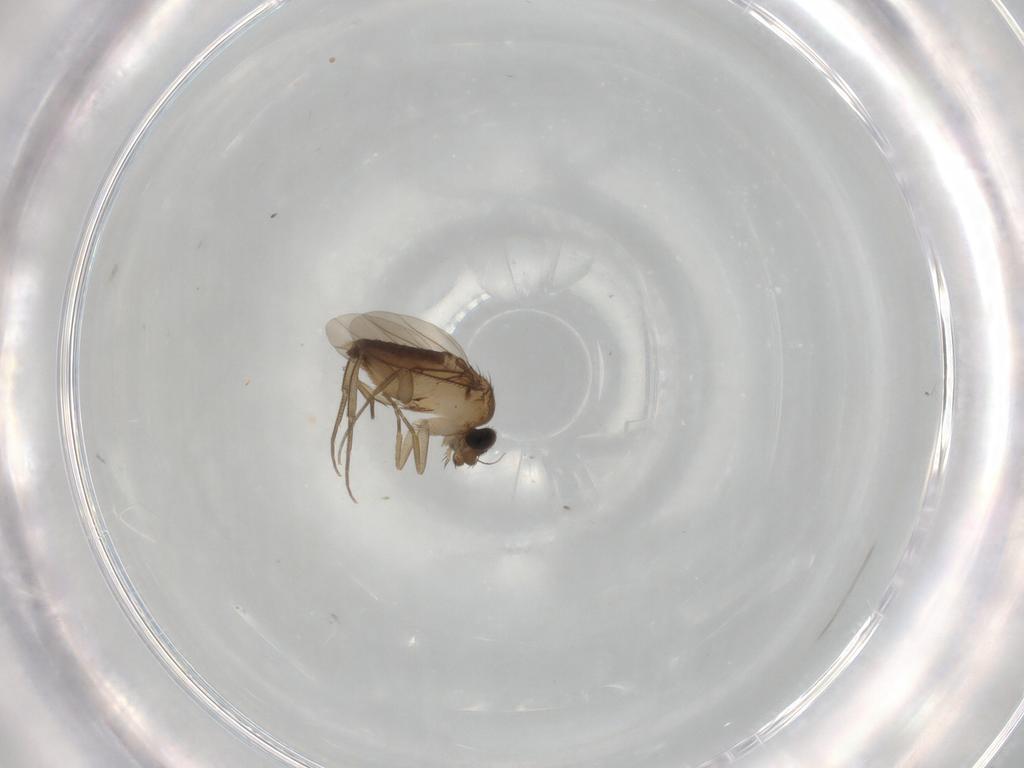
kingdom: Animalia
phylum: Arthropoda
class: Insecta
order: Diptera
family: Phoridae
